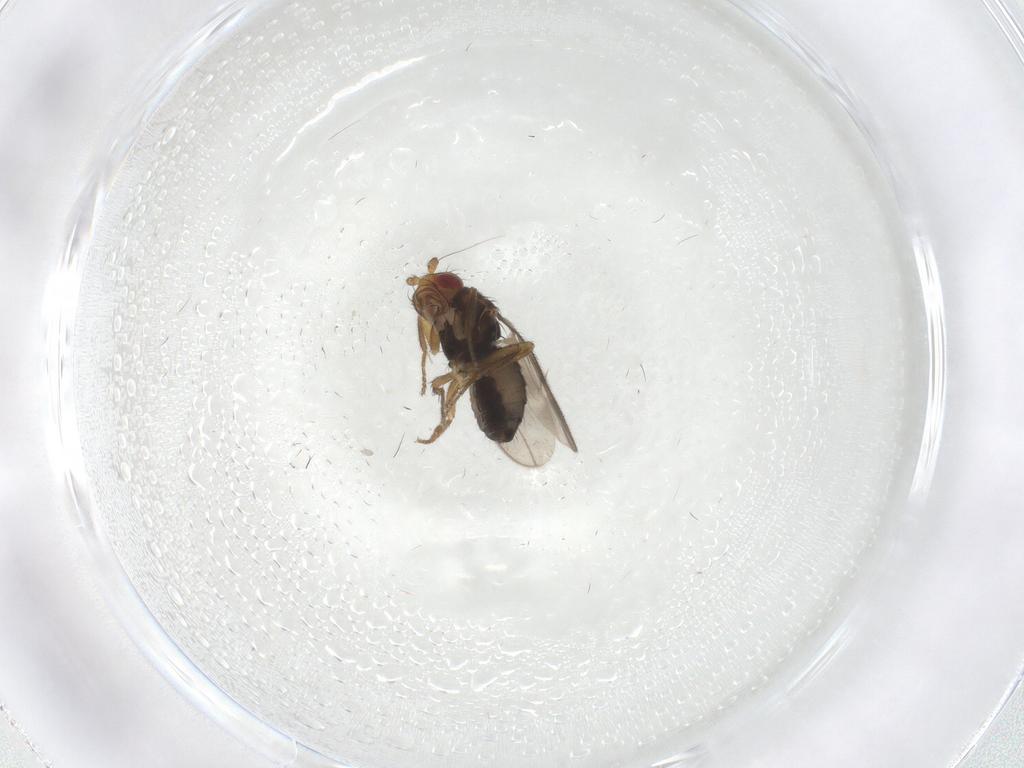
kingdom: Animalia
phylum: Arthropoda
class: Insecta
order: Diptera
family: Sphaeroceridae
